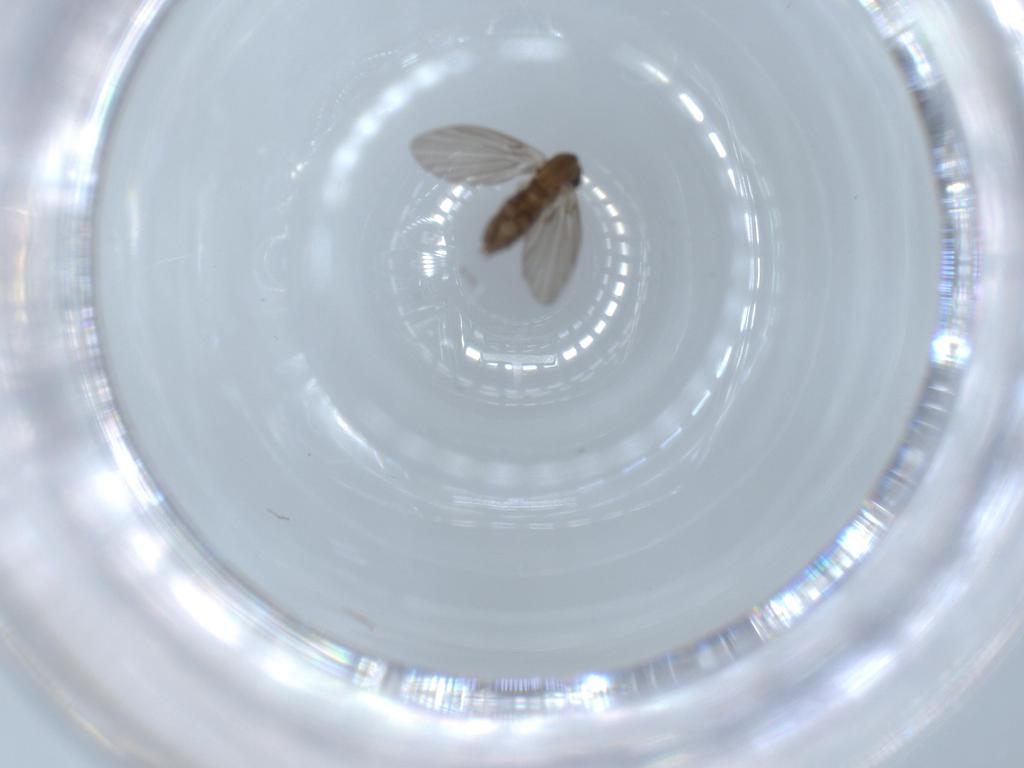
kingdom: Animalia
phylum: Arthropoda
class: Insecta
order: Diptera
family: Psychodidae
